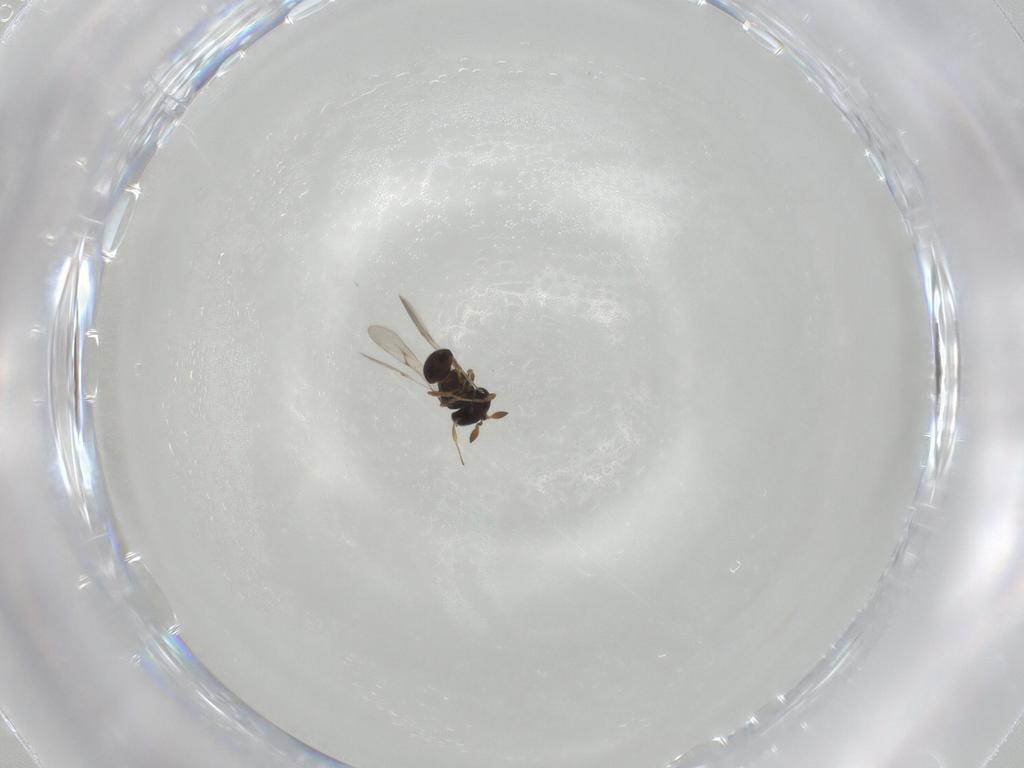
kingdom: Animalia
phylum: Arthropoda
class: Insecta
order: Hymenoptera
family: Scelionidae
